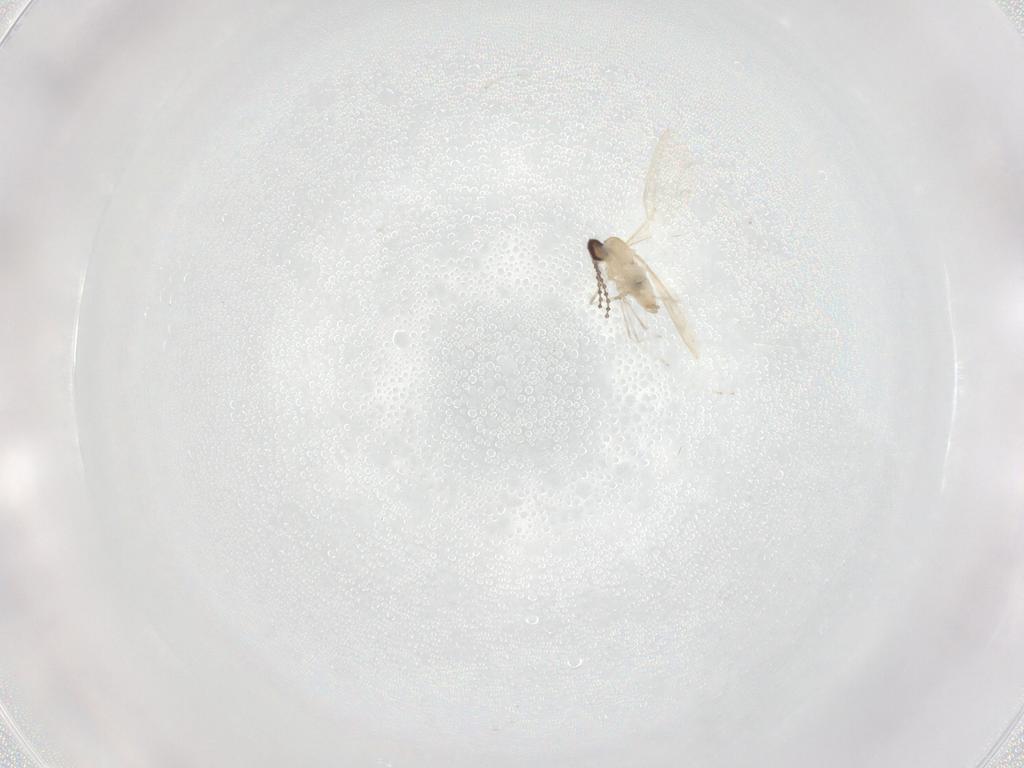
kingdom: Animalia
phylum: Arthropoda
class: Insecta
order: Diptera
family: Cecidomyiidae
